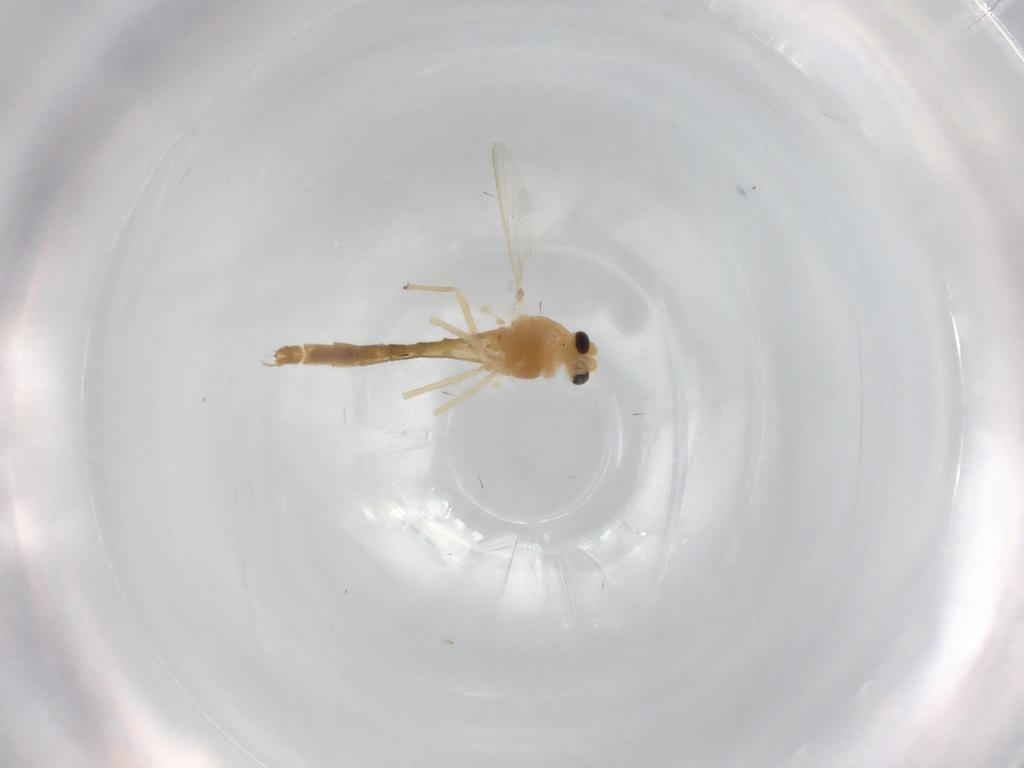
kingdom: Animalia
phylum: Arthropoda
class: Insecta
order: Diptera
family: Chironomidae
